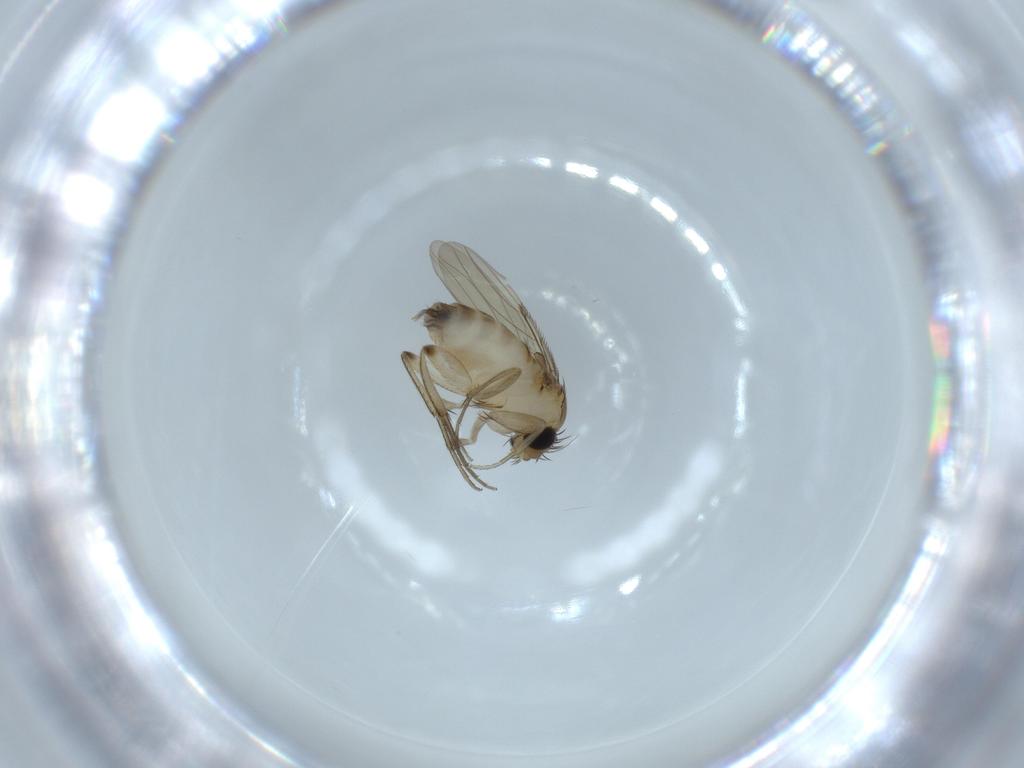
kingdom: Animalia
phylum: Arthropoda
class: Insecta
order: Diptera
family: Phoridae
